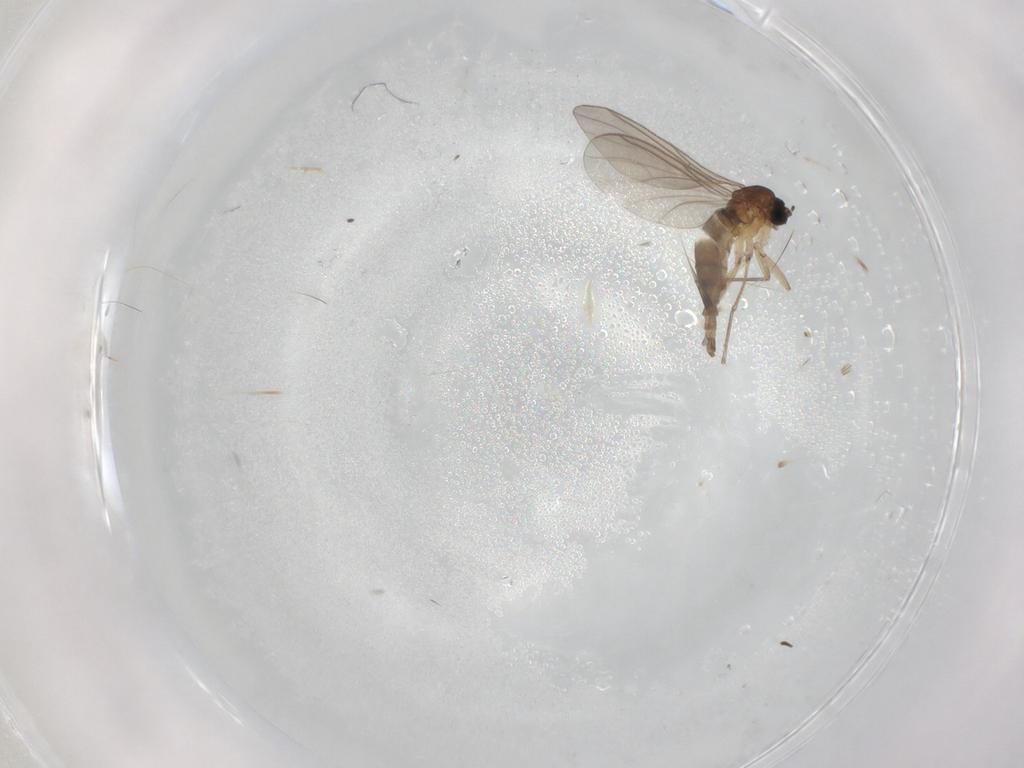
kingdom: Animalia
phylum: Arthropoda
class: Insecta
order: Diptera
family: Sciaridae
